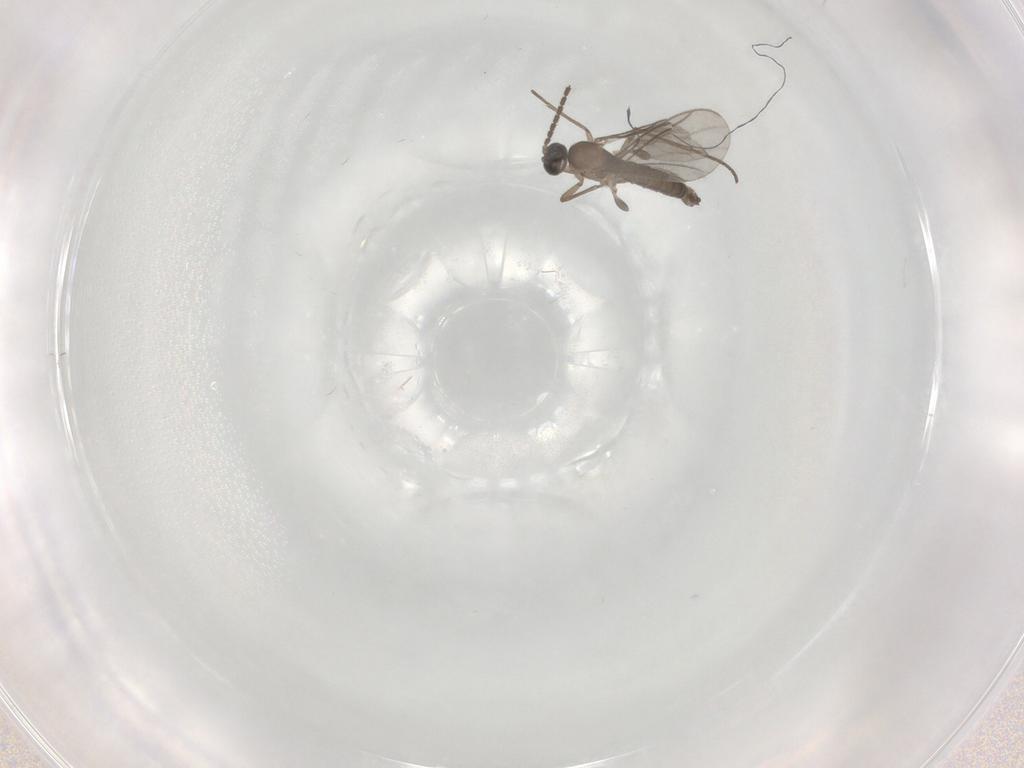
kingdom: Animalia
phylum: Arthropoda
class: Insecta
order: Diptera
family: Sciaridae
